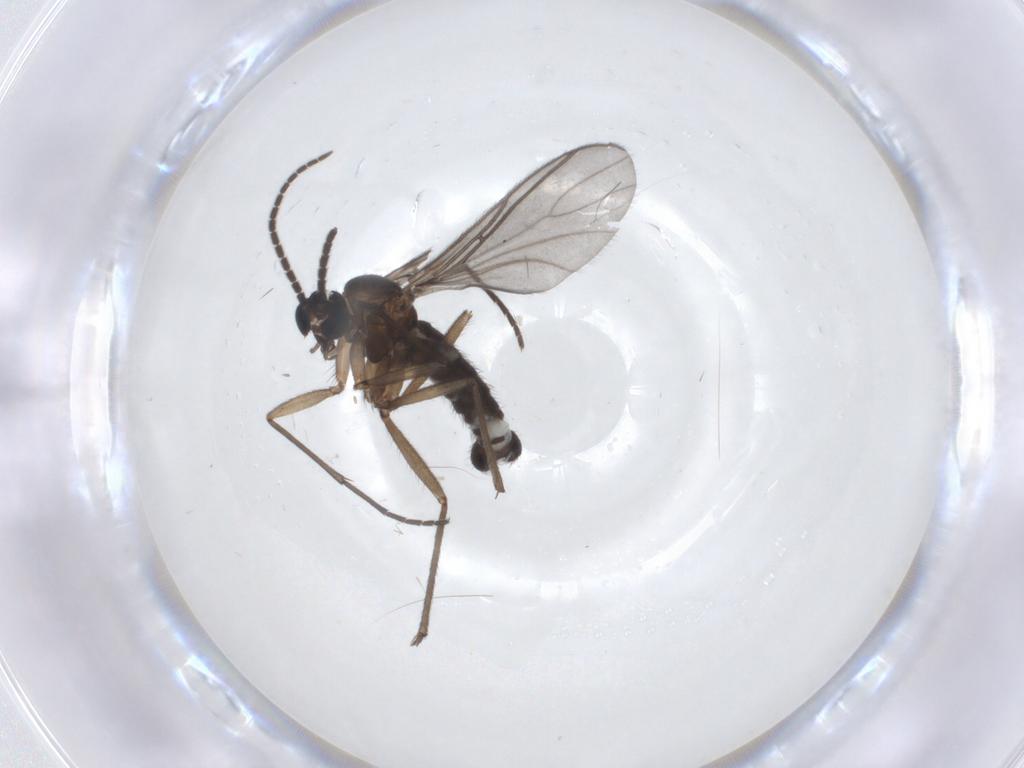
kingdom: Animalia
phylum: Arthropoda
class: Insecta
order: Diptera
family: Sciaridae
